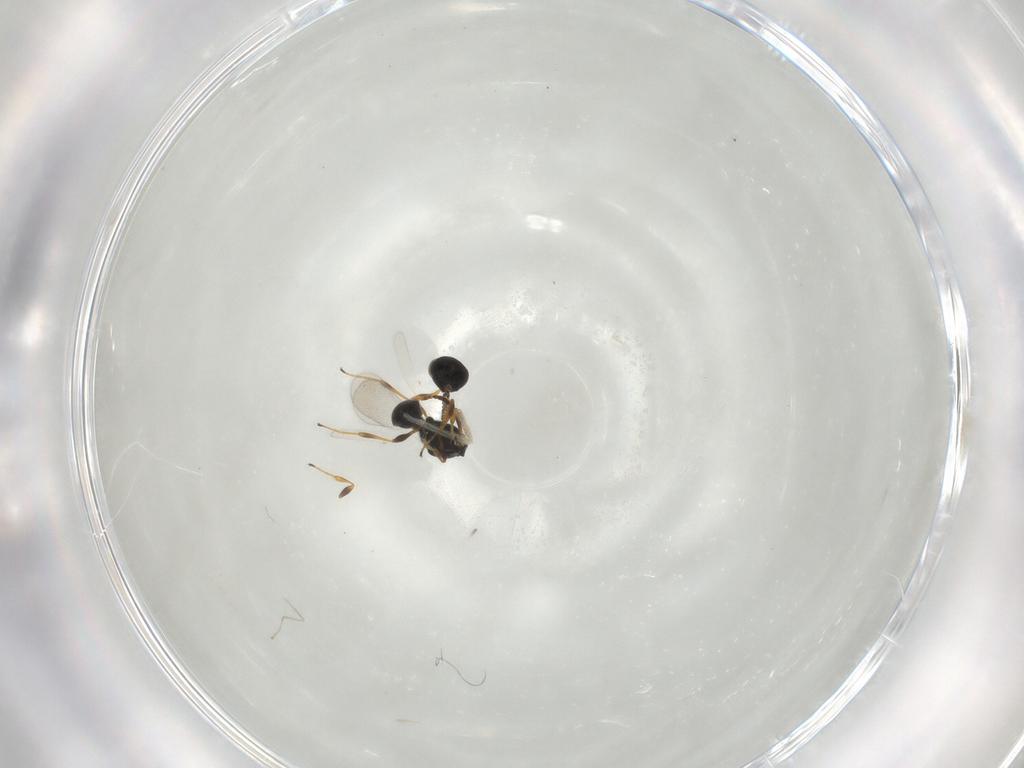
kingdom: Animalia
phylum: Arthropoda
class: Insecta
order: Hymenoptera
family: Platygastridae
